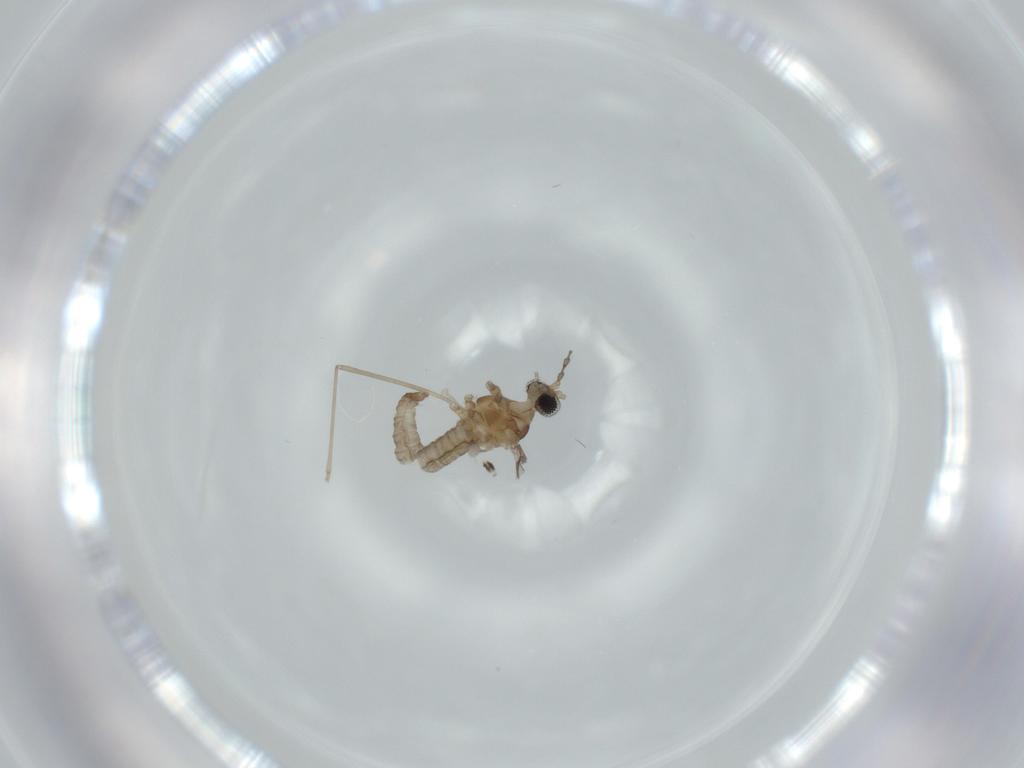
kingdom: Animalia
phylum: Arthropoda
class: Insecta
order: Diptera
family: Cecidomyiidae
